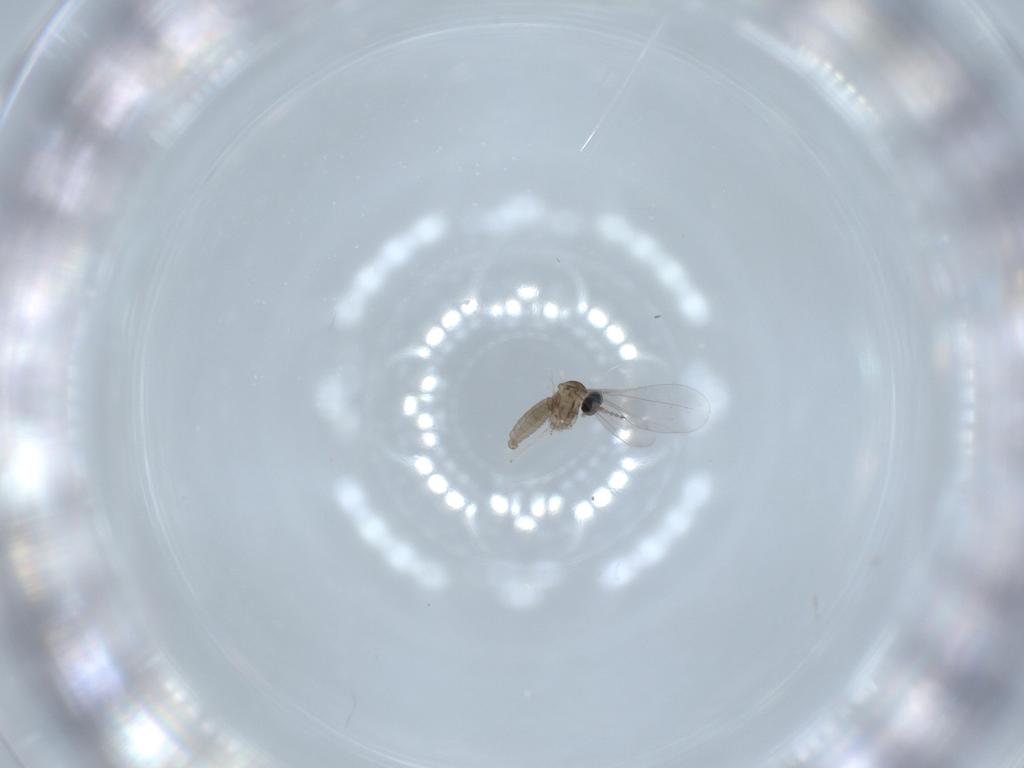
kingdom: Animalia
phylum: Arthropoda
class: Insecta
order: Diptera
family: Cecidomyiidae
